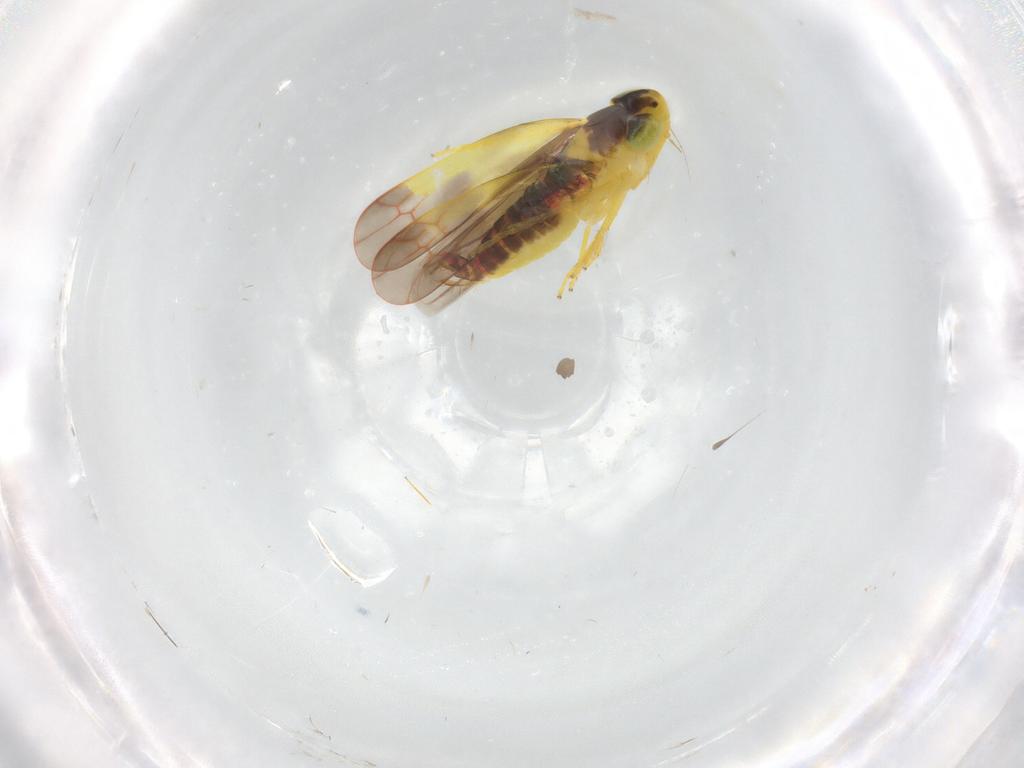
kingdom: Animalia
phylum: Arthropoda
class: Insecta
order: Hemiptera
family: Cicadellidae
